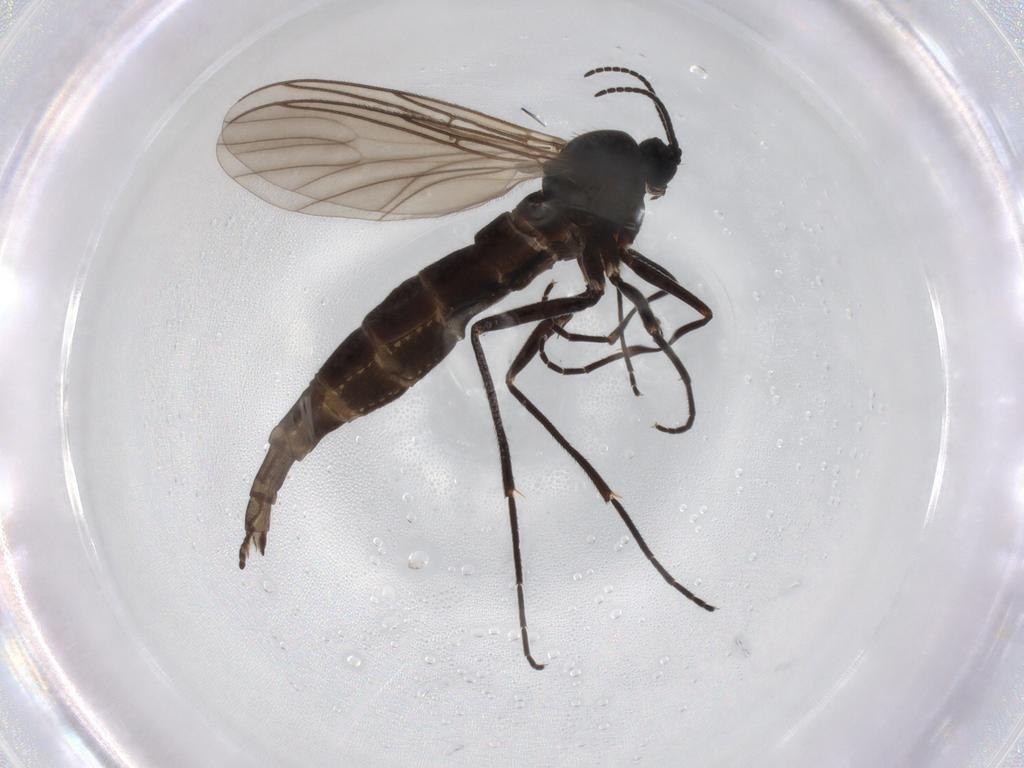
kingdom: Animalia
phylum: Arthropoda
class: Insecta
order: Diptera
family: Sciaridae
